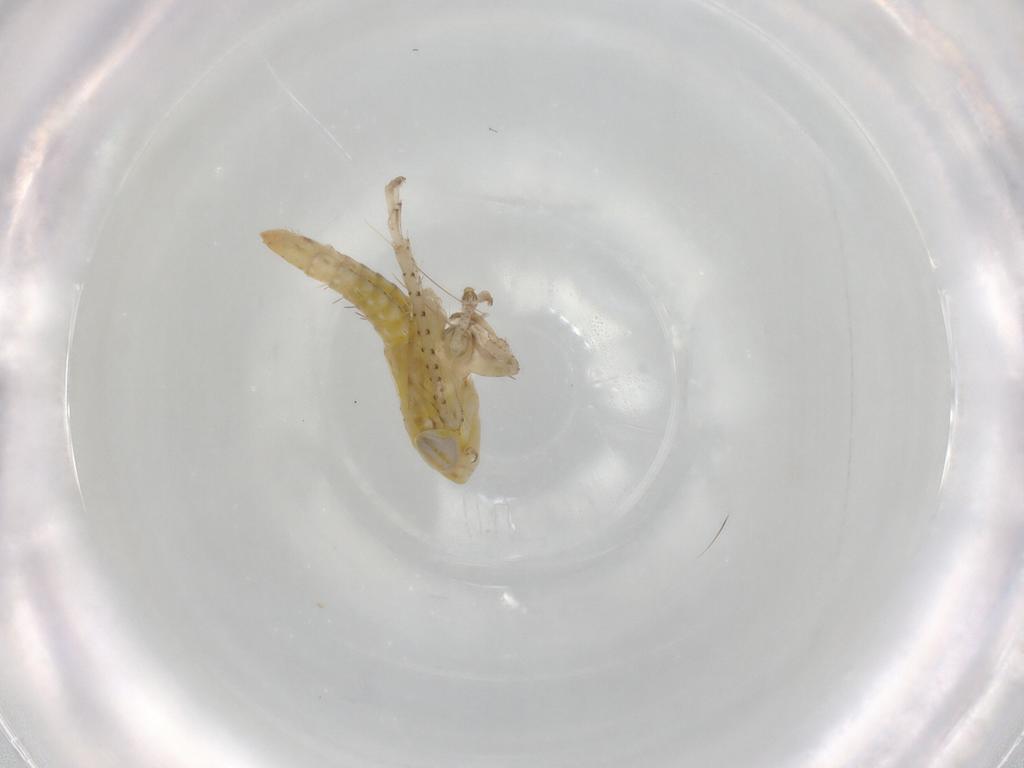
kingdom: Animalia
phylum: Arthropoda
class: Insecta
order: Hemiptera
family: Cicadellidae
